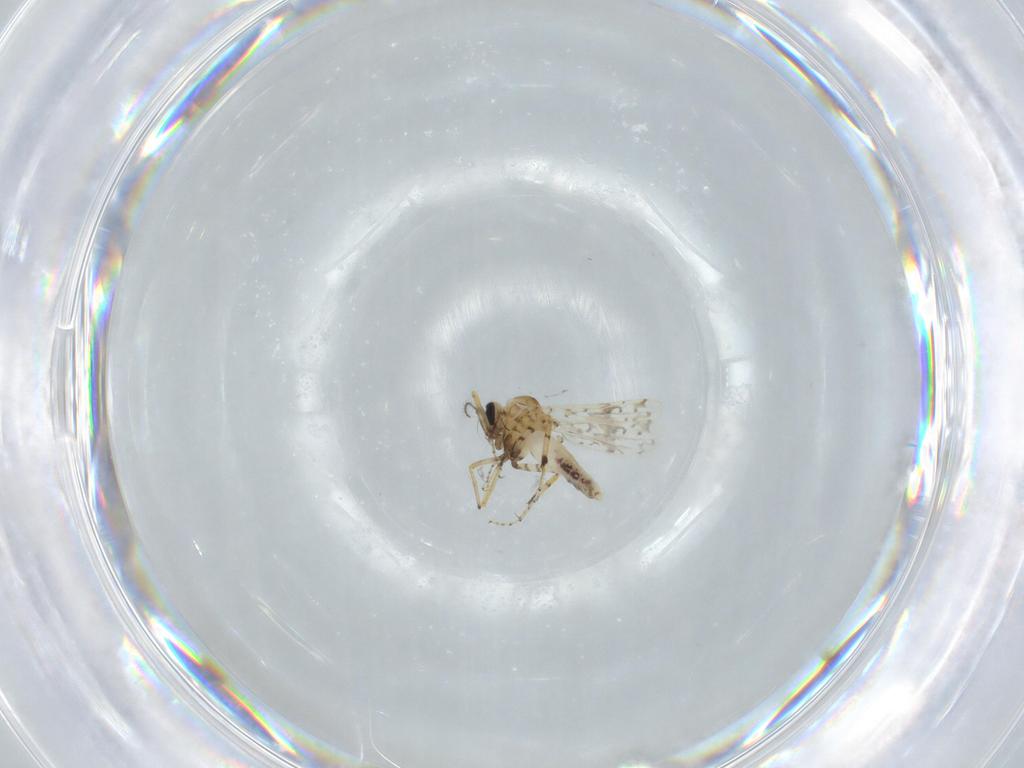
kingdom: Animalia
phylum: Arthropoda
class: Insecta
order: Diptera
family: Ceratopogonidae
